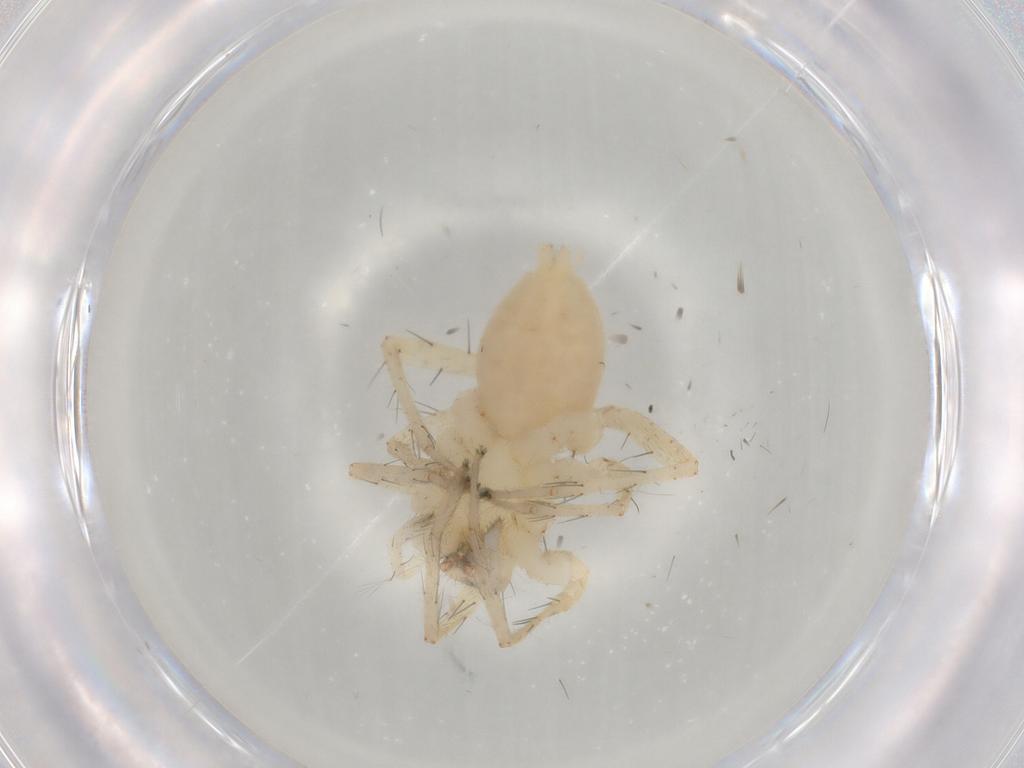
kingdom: Animalia
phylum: Arthropoda
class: Arachnida
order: Araneae
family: Anyphaenidae
